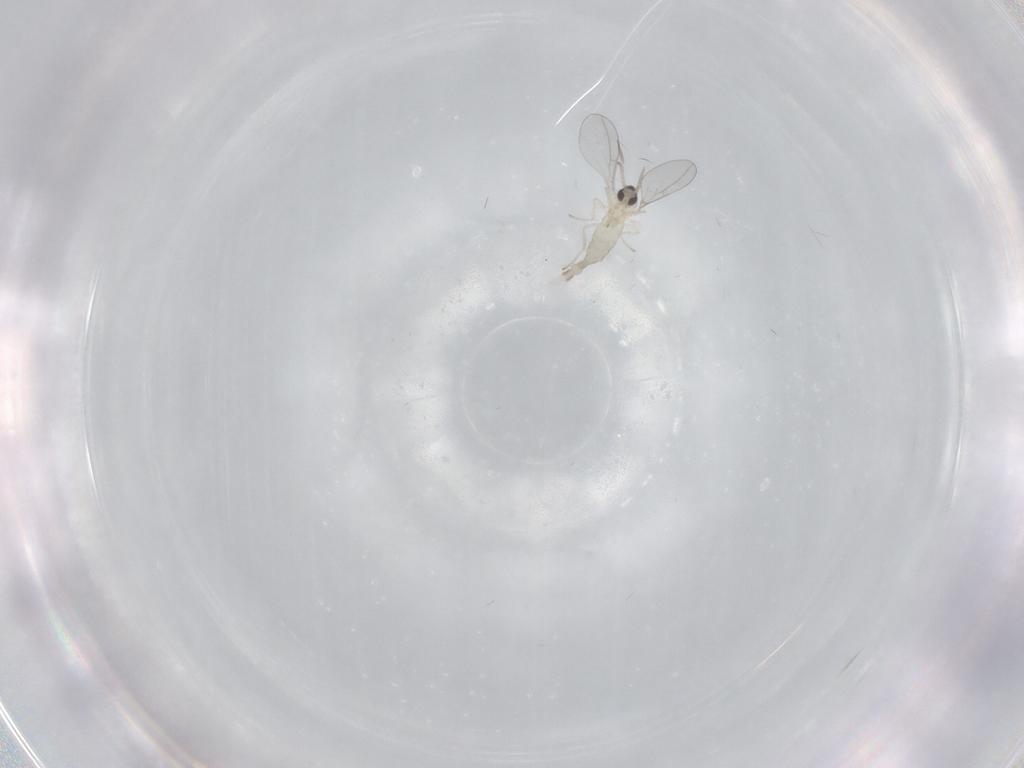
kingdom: Animalia
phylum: Arthropoda
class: Insecta
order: Diptera
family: Cecidomyiidae
